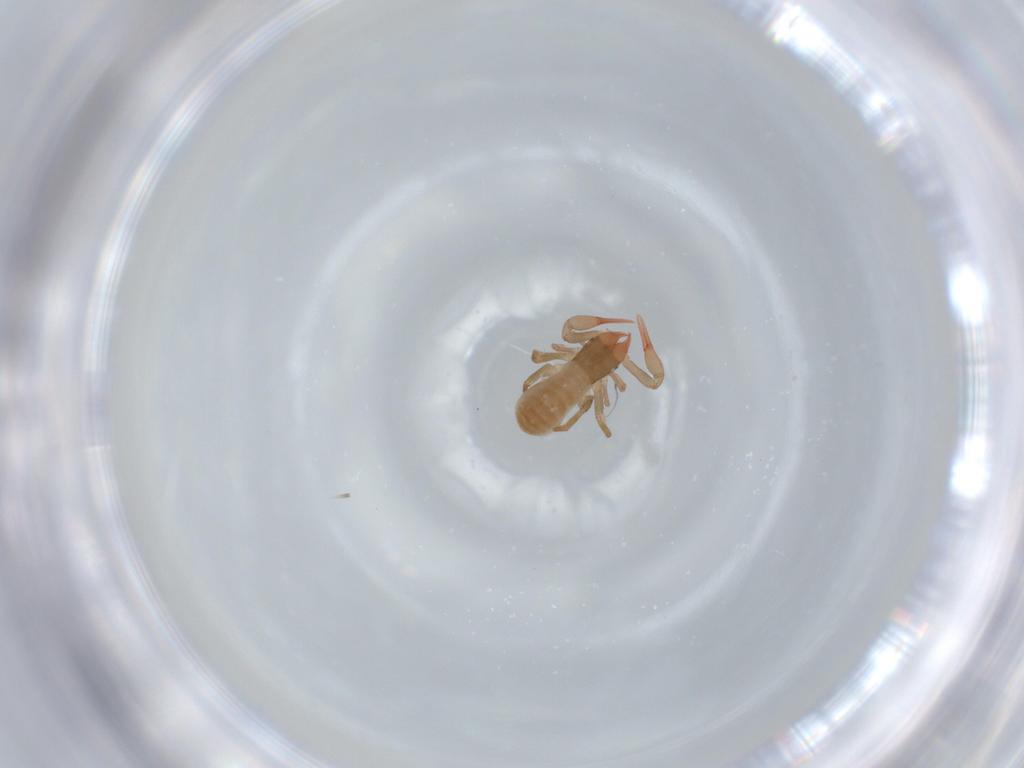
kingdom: Animalia
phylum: Arthropoda
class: Arachnida
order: Pseudoscorpiones
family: Chthoniidae
